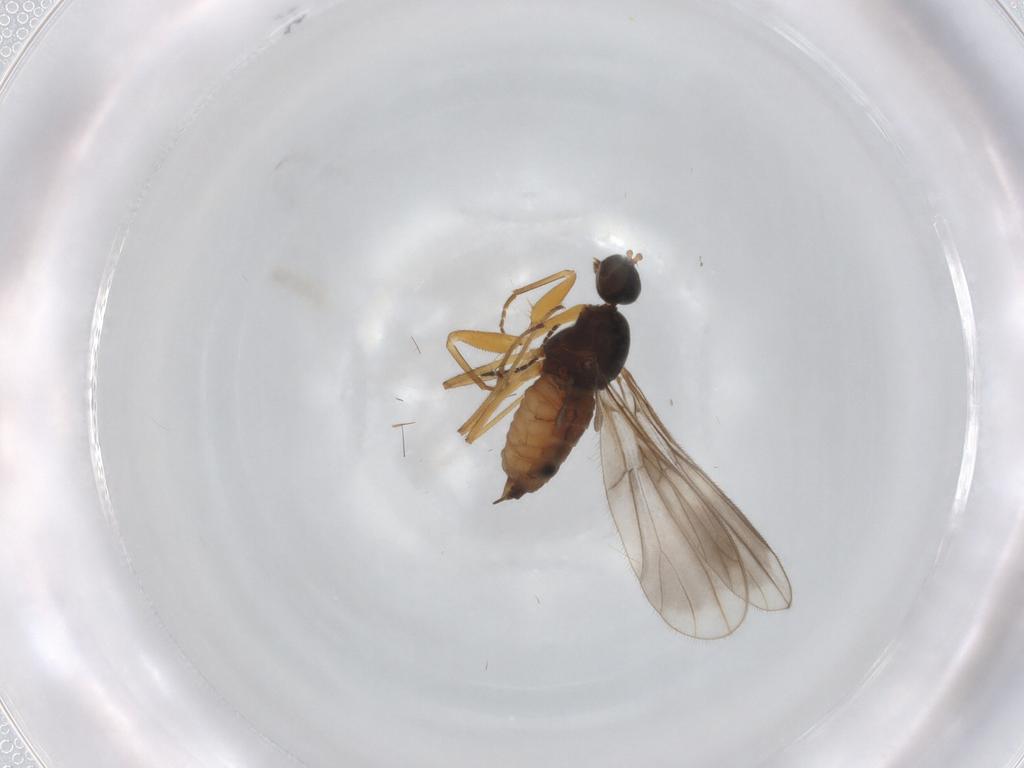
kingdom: Animalia
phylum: Arthropoda
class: Insecta
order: Diptera
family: Empididae
